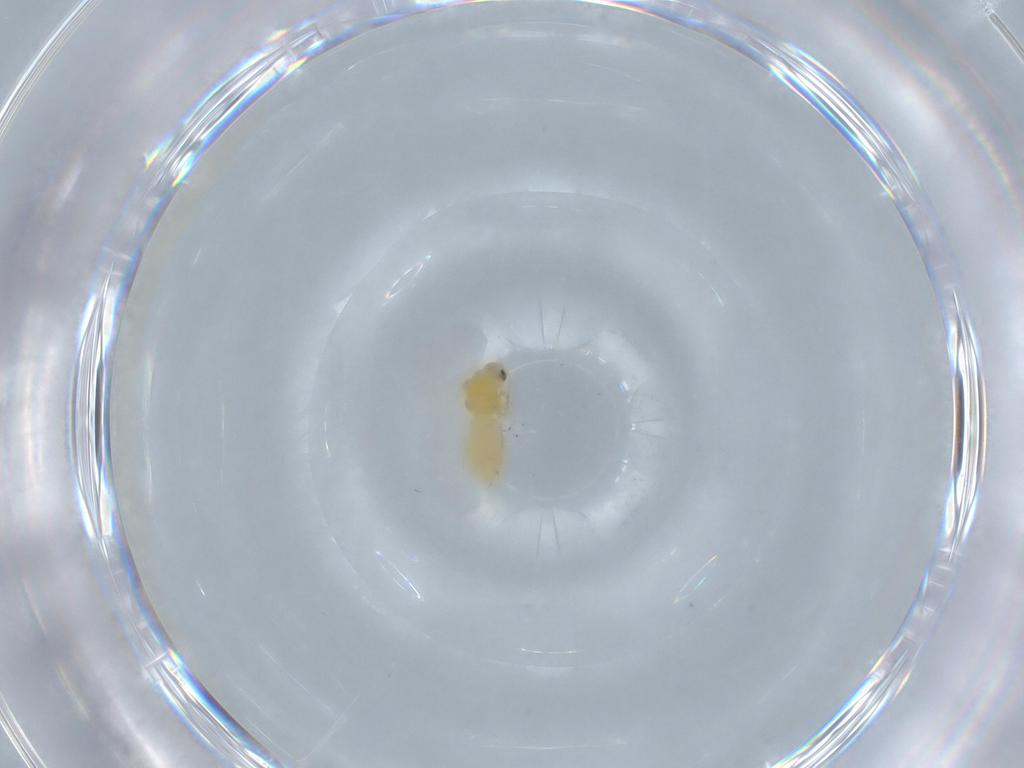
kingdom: Animalia
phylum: Arthropoda
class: Insecta
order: Hemiptera
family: Aleyrodidae
